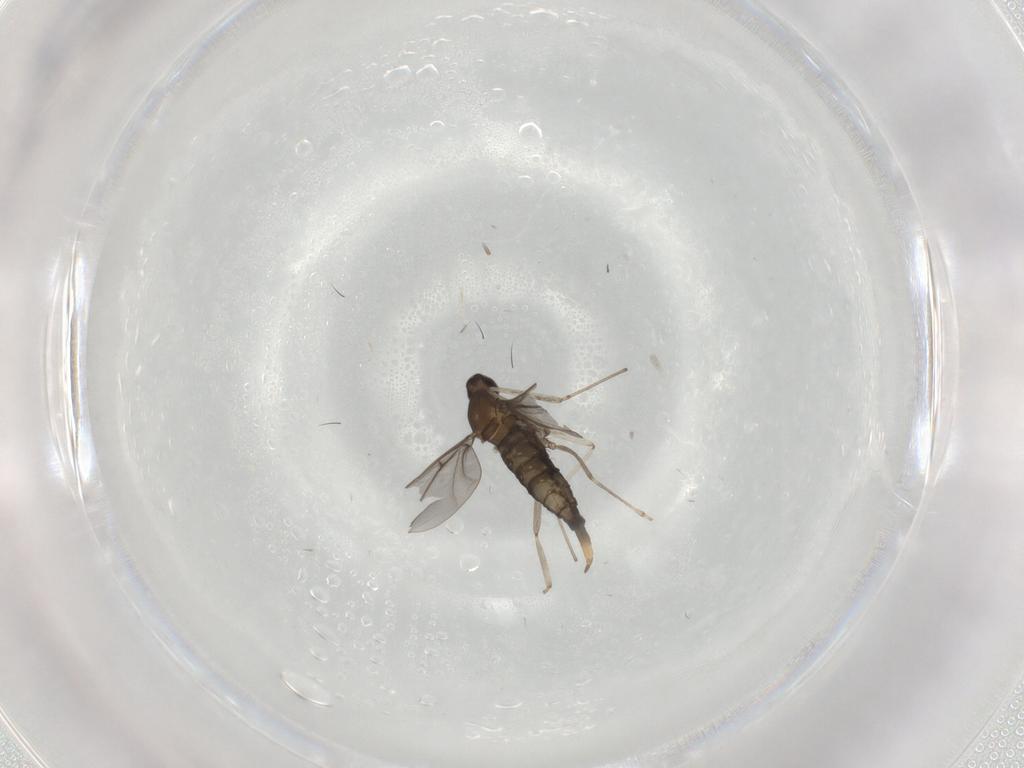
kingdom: Animalia
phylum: Arthropoda
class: Insecta
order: Diptera
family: Cecidomyiidae
